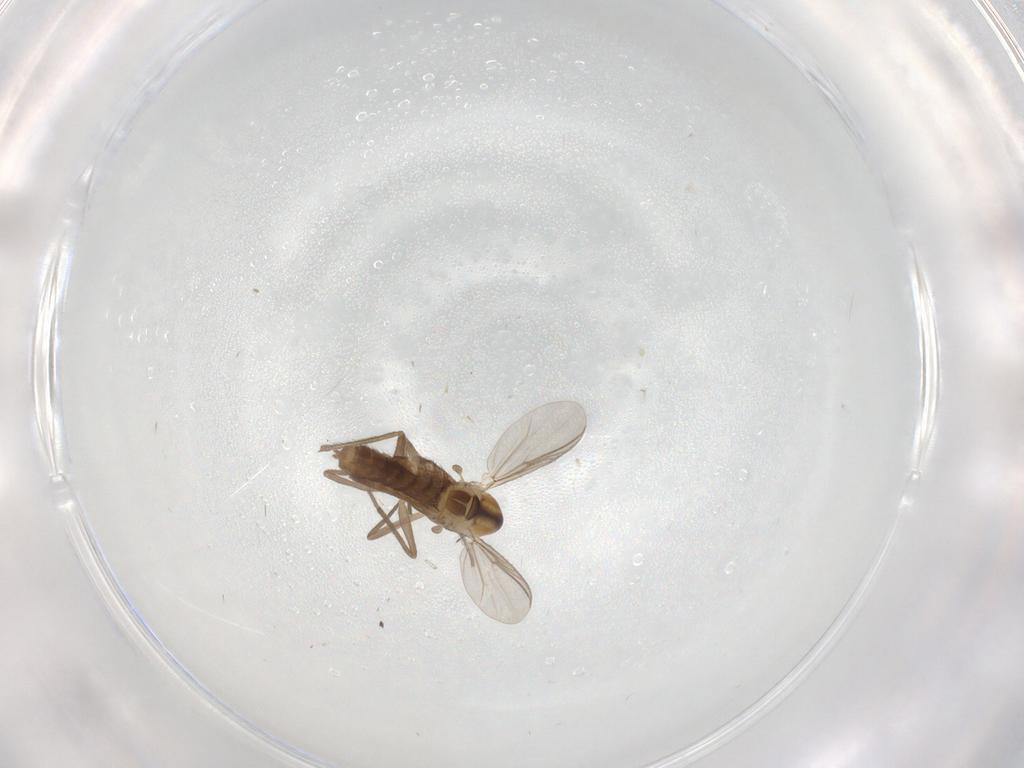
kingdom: Animalia
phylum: Arthropoda
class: Insecta
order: Diptera
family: Chironomidae
